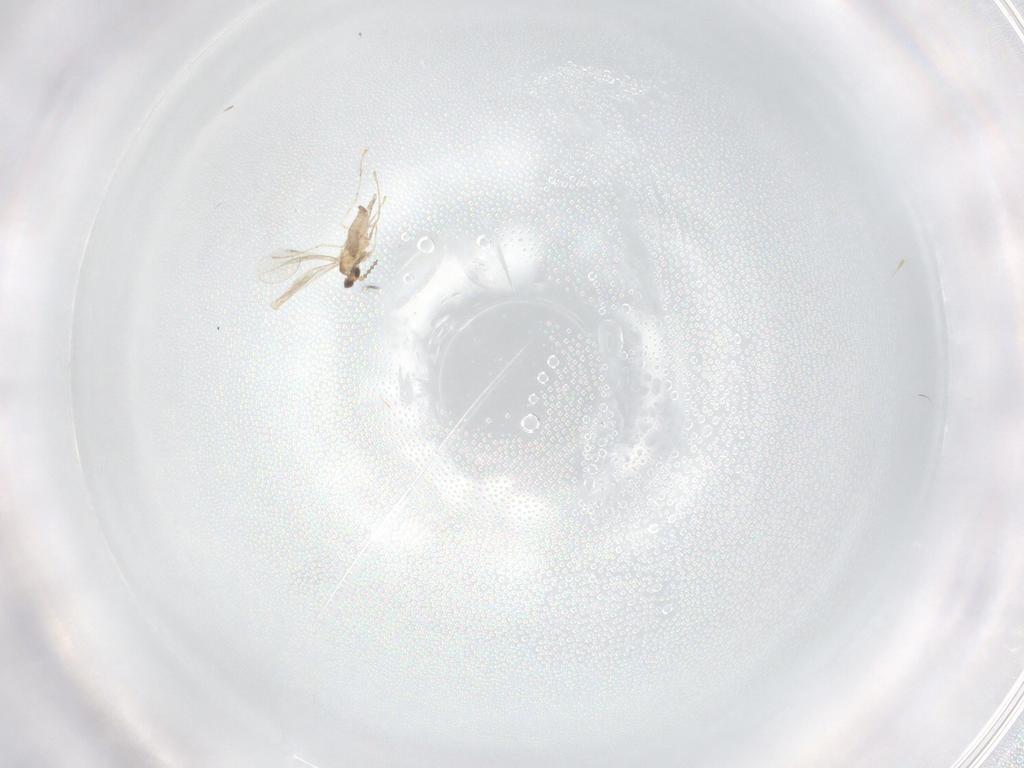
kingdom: Animalia
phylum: Arthropoda
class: Insecta
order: Diptera
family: Cecidomyiidae
